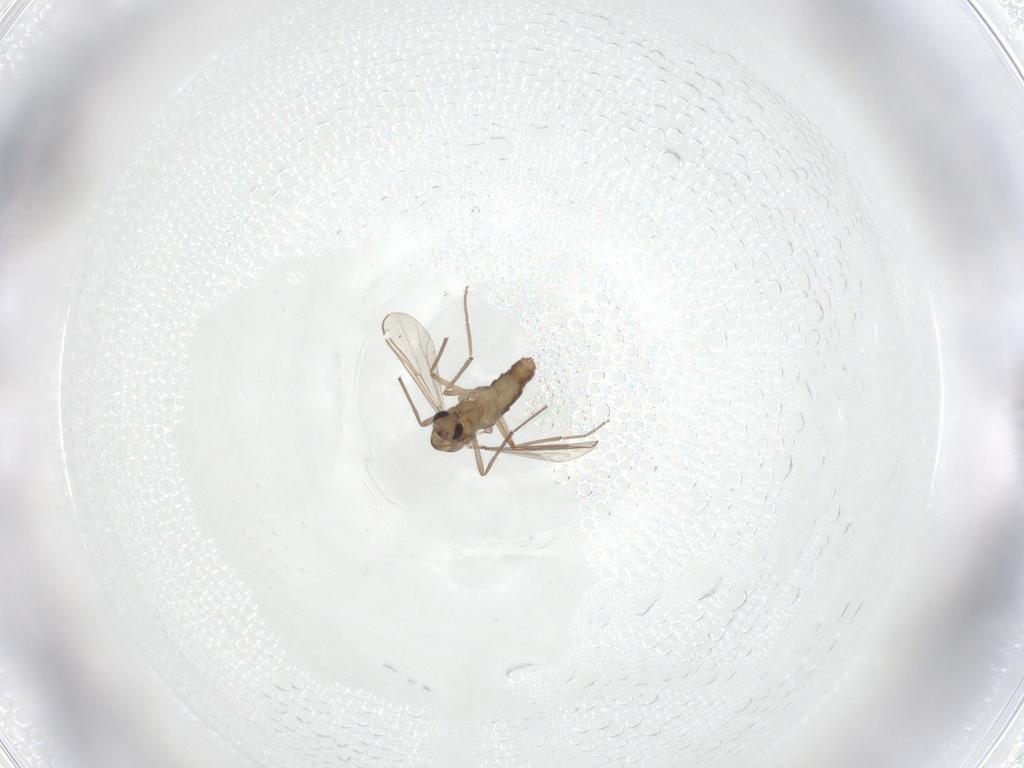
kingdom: Animalia
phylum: Arthropoda
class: Insecta
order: Diptera
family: Chironomidae
